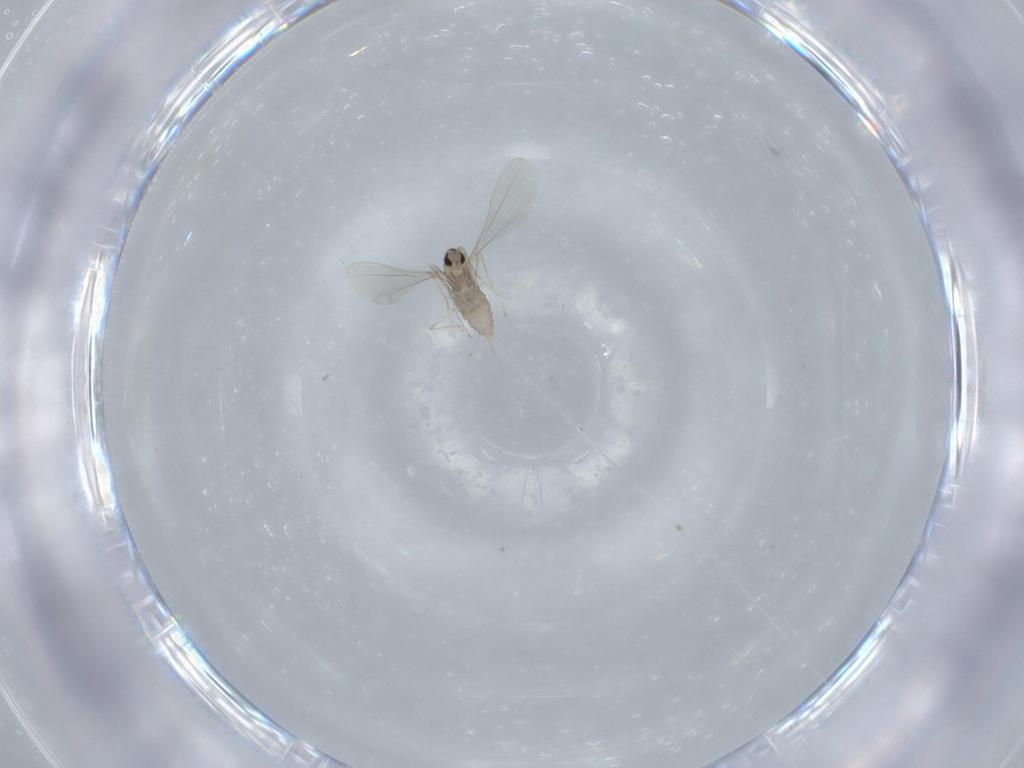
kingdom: Animalia
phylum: Arthropoda
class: Insecta
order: Diptera
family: Cecidomyiidae
